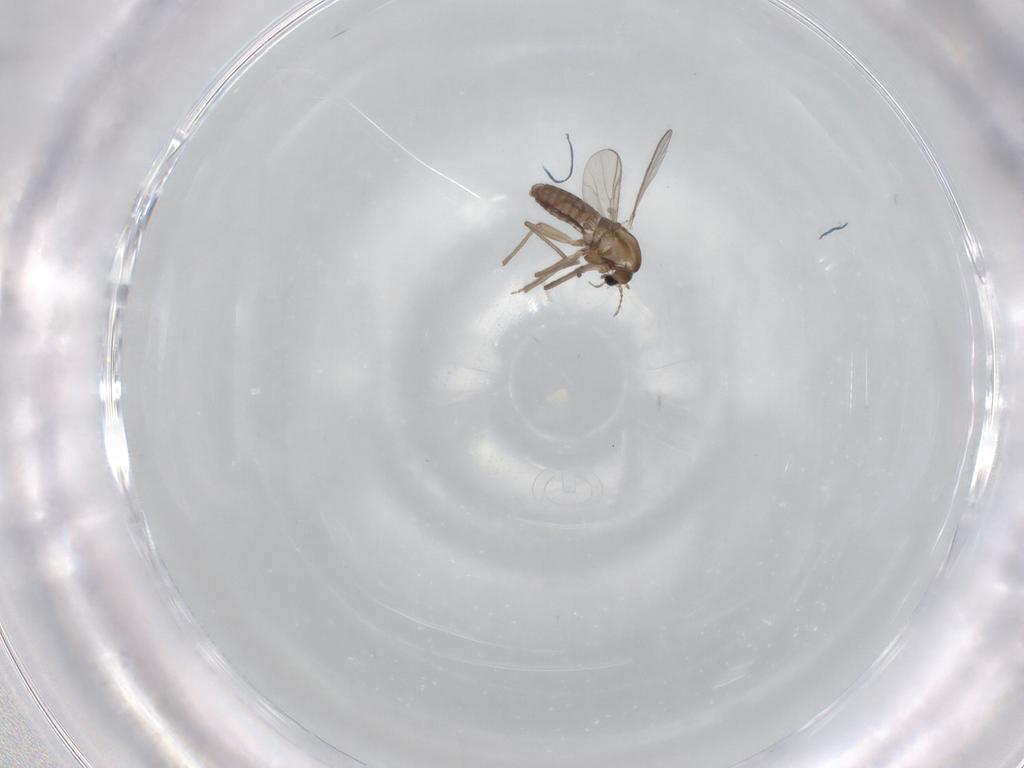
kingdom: Animalia
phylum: Arthropoda
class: Insecta
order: Diptera
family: Chironomidae
